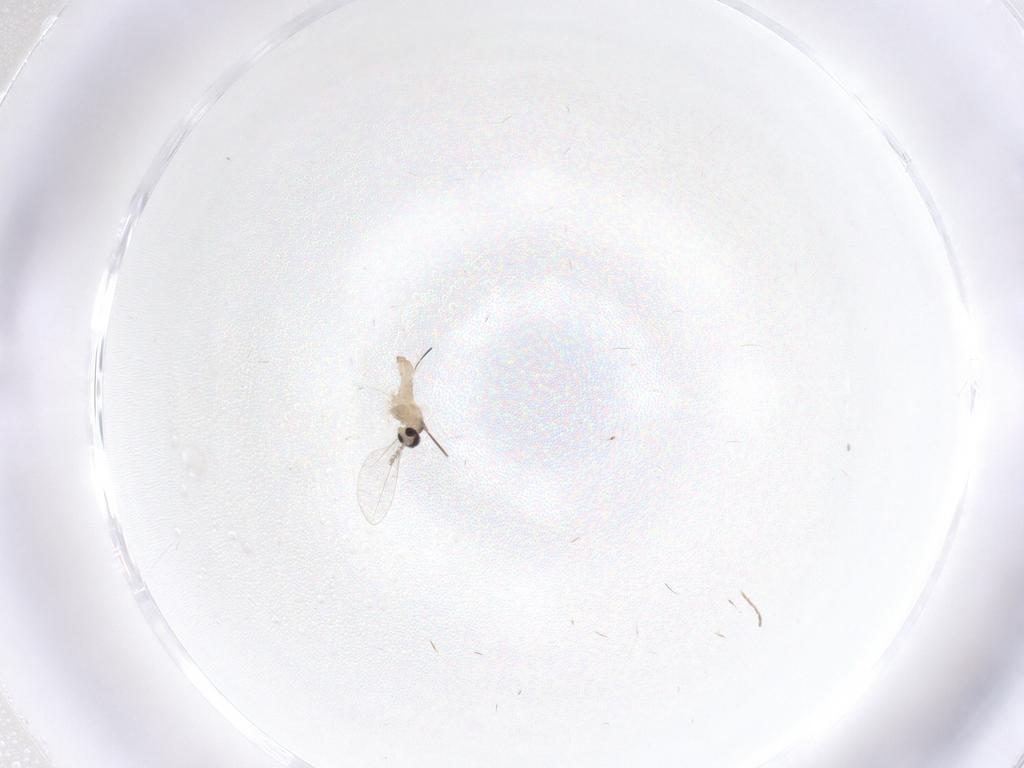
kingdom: Animalia
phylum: Arthropoda
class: Insecta
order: Diptera
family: Cecidomyiidae
